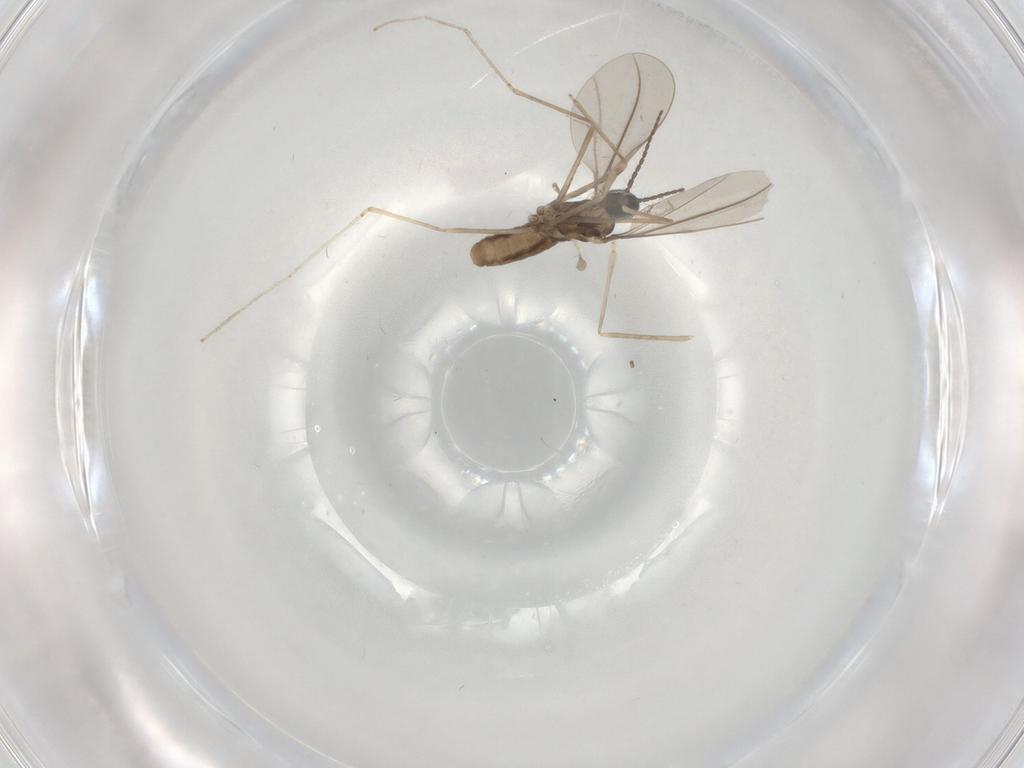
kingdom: Animalia
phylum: Arthropoda
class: Insecta
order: Diptera
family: Cecidomyiidae
